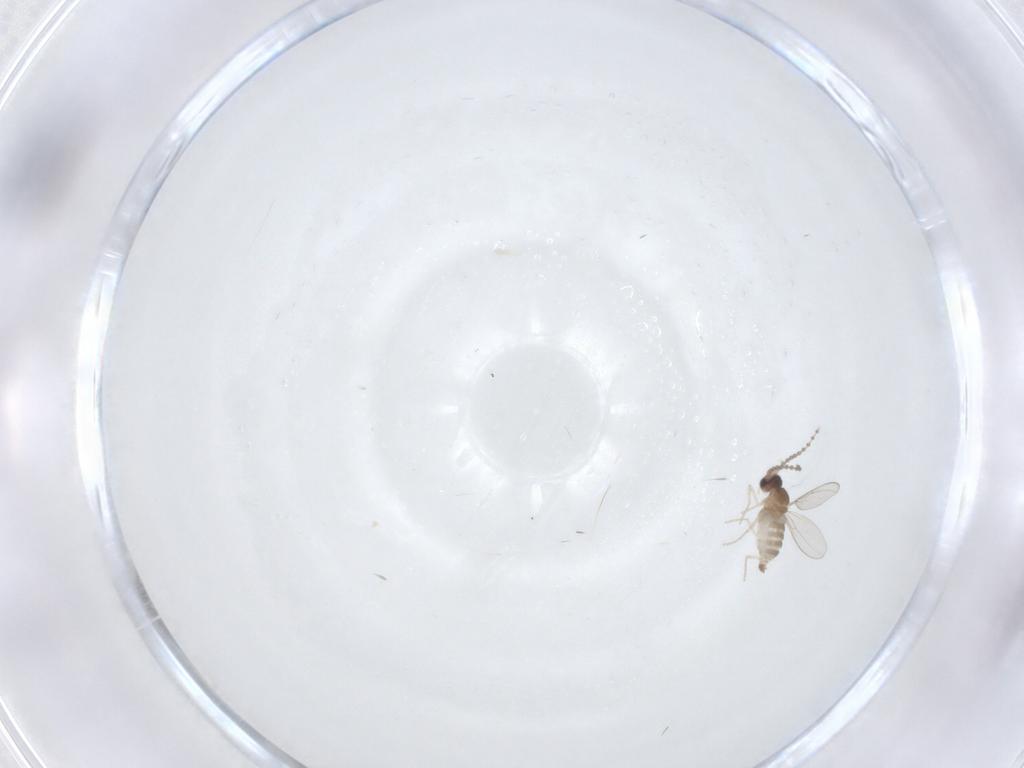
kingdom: Animalia
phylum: Arthropoda
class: Insecta
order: Diptera
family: Cecidomyiidae
